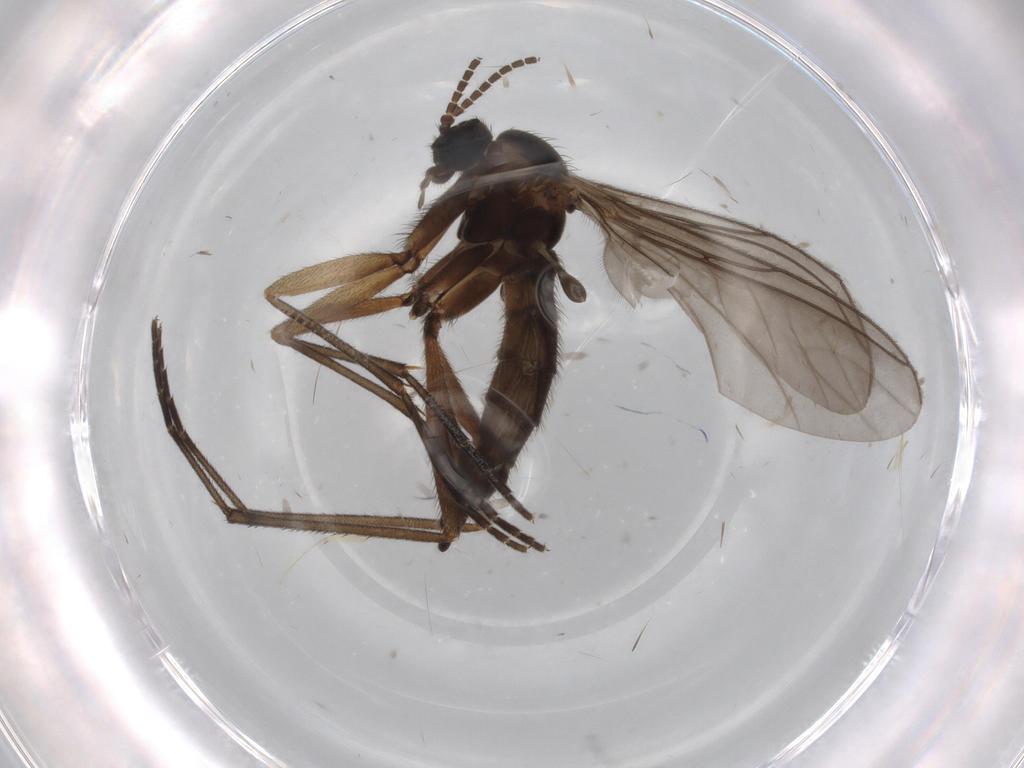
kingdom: Animalia
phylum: Arthropoda
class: Insecta
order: Diptera
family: Sciaridae
